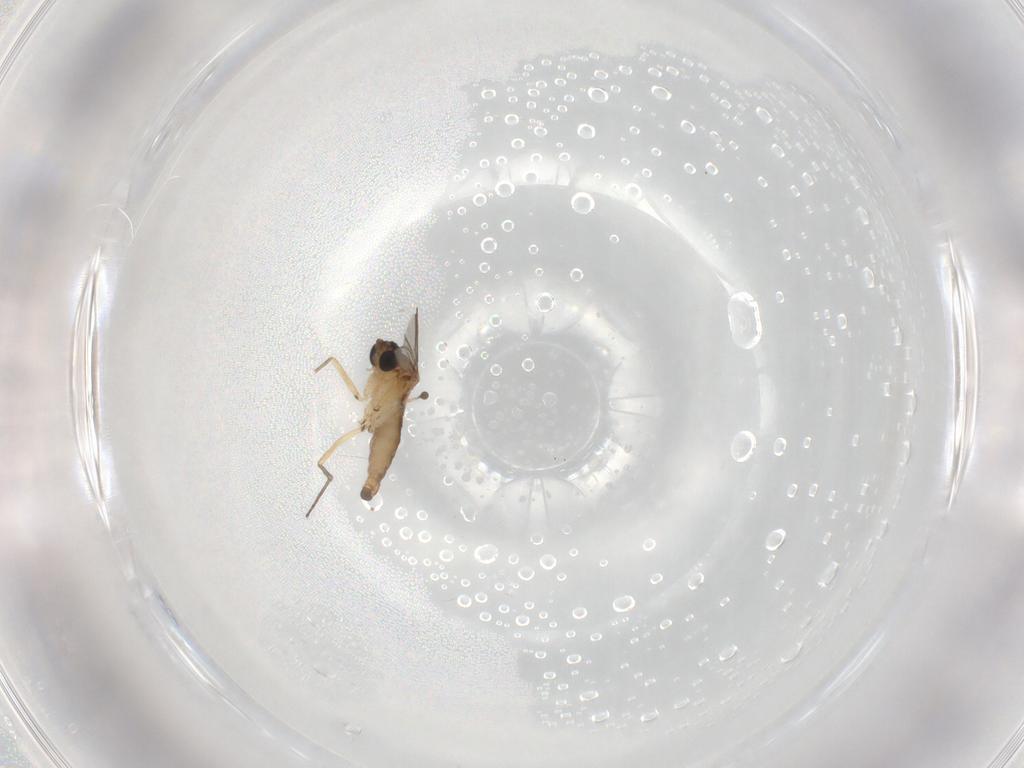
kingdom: Animalia
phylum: Arthropoda
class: Insecta
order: Diptera
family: Sciaridae
